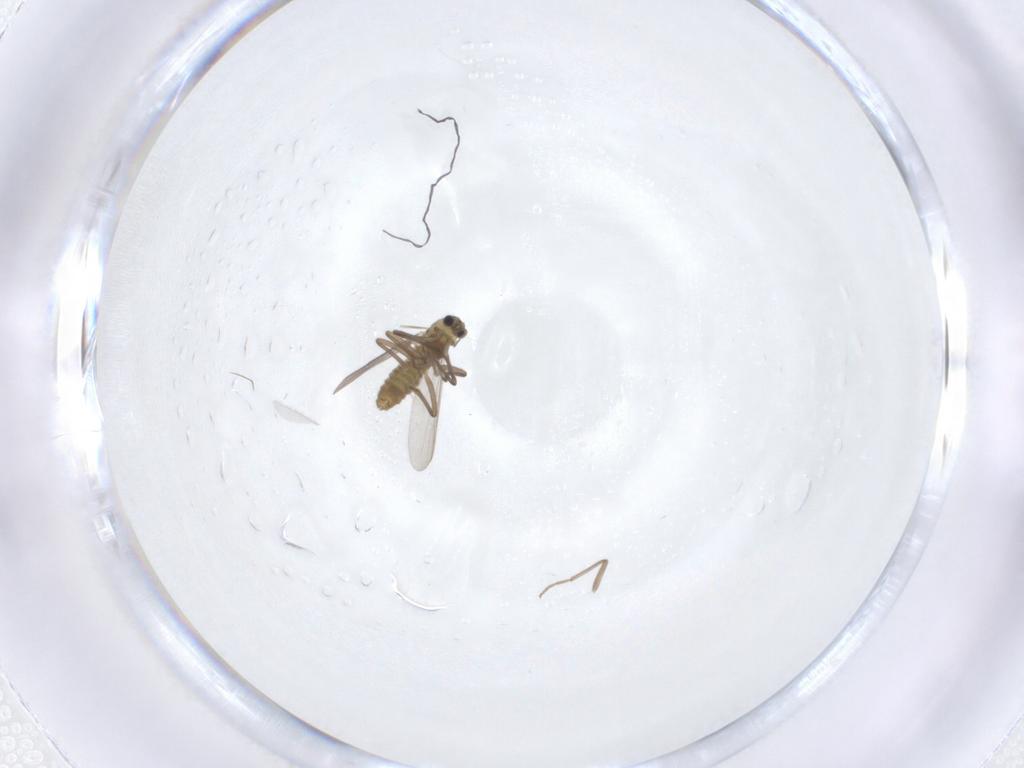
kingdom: Animalia
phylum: Arthropoda
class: Insecta
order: Diptera
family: Chironomidae
